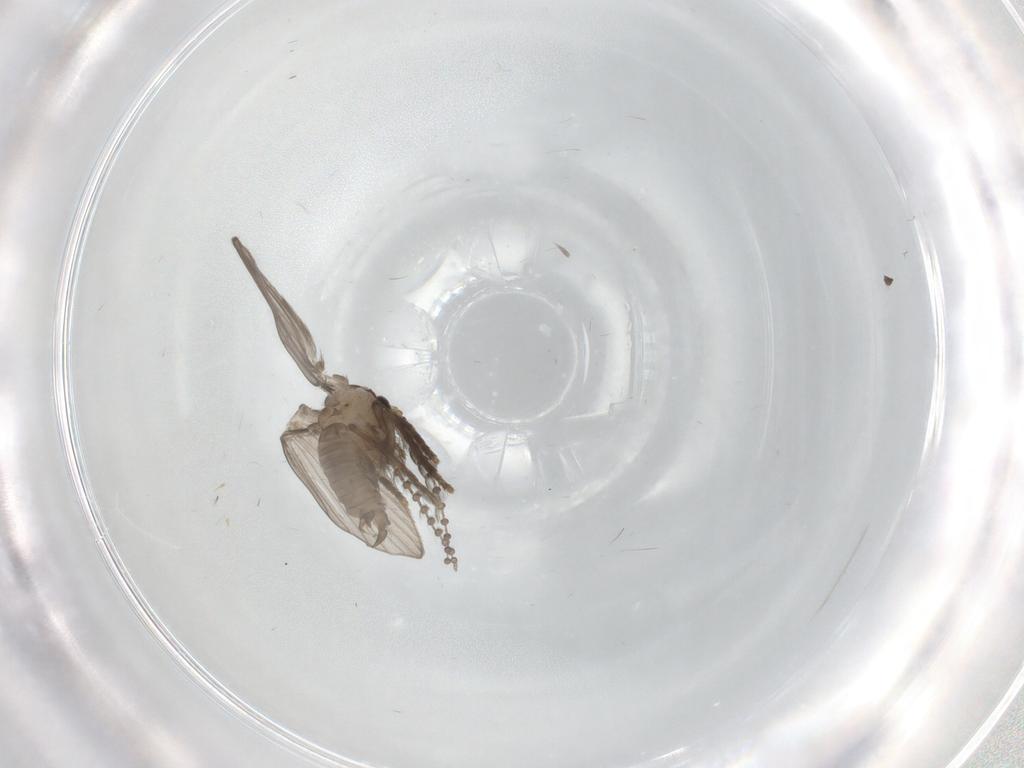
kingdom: Animalia
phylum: Arthropoda
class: Insecta
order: Diptera
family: Psychodidae
